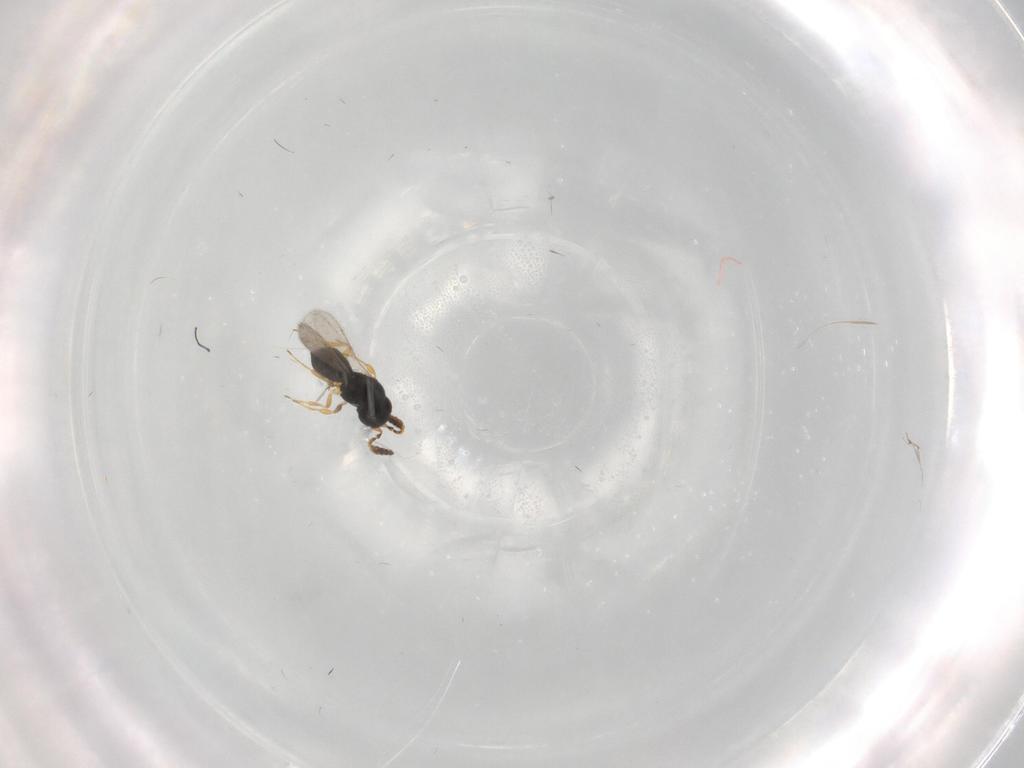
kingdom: Animalia
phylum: Arthropoda
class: Insecta
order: Hymenoptera
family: Scelionidae
